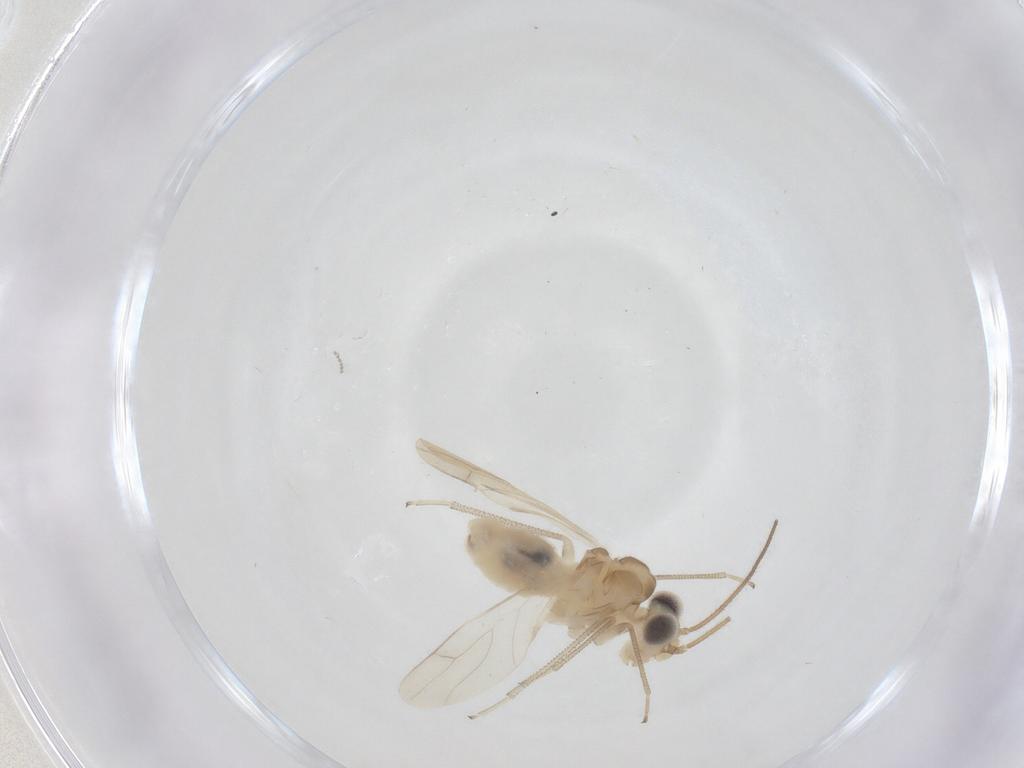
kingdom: Animalia
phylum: Arthropoda
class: Insecta
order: Psocodea
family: Caeciliusidae
